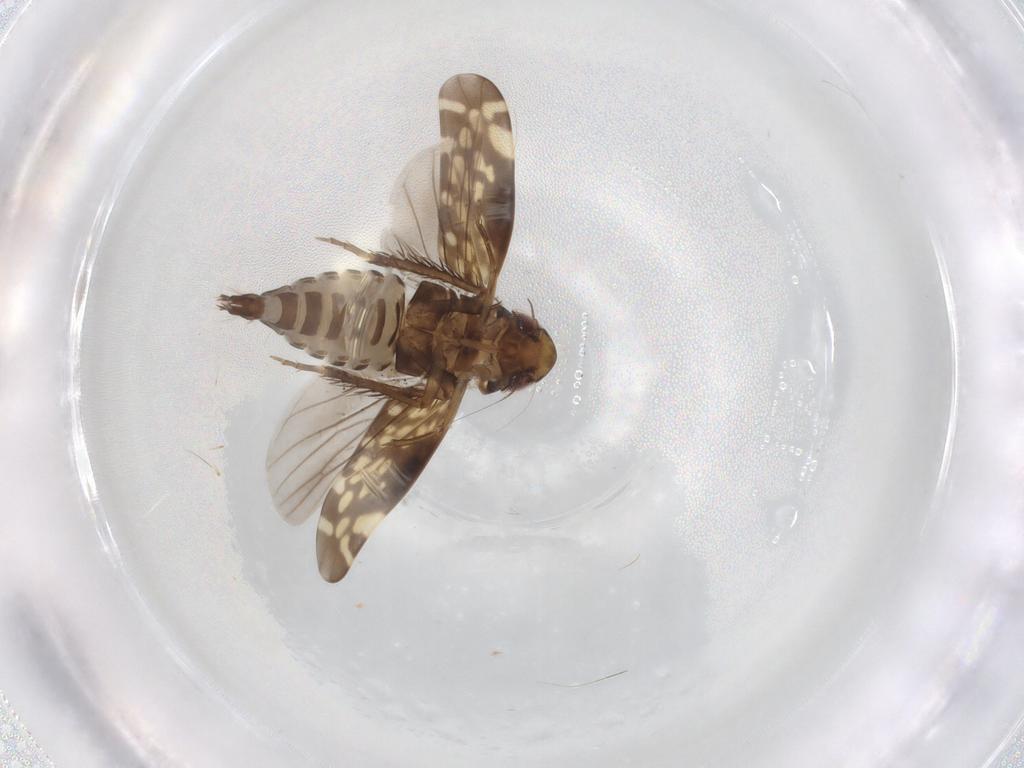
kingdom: Animalia
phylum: Arthropoda
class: Insecta
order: Hemiptera
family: Cicadellidae
